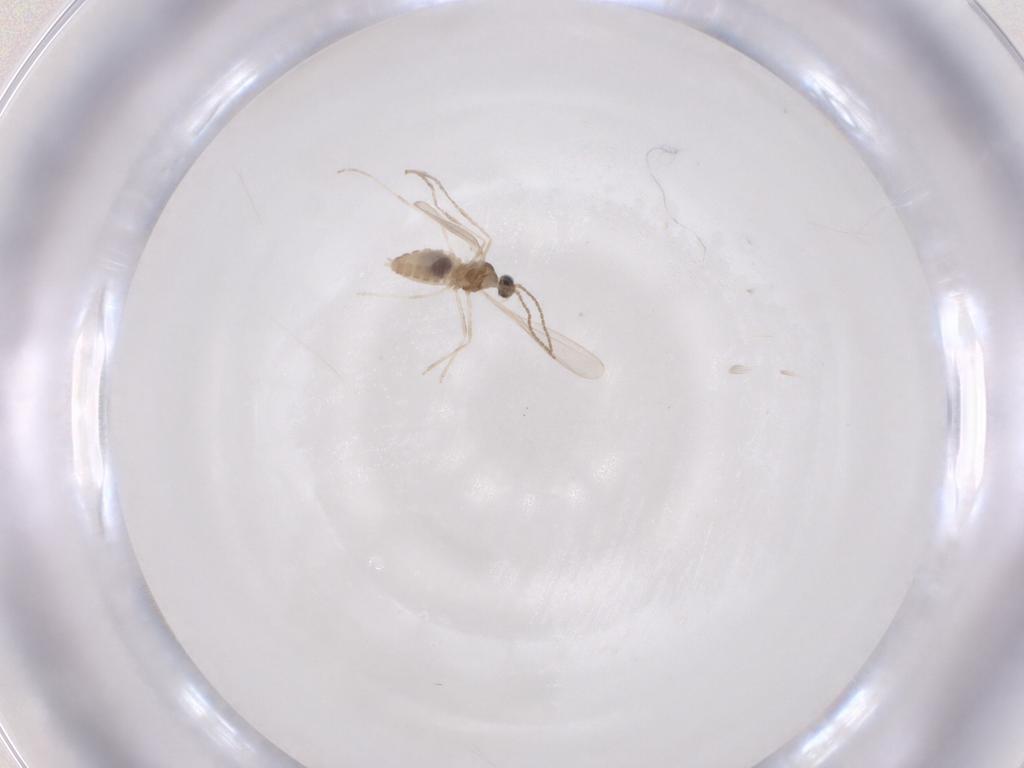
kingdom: Animalia
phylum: Arthropoda
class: Insecta
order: Diptera
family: Cecidomyiidae
